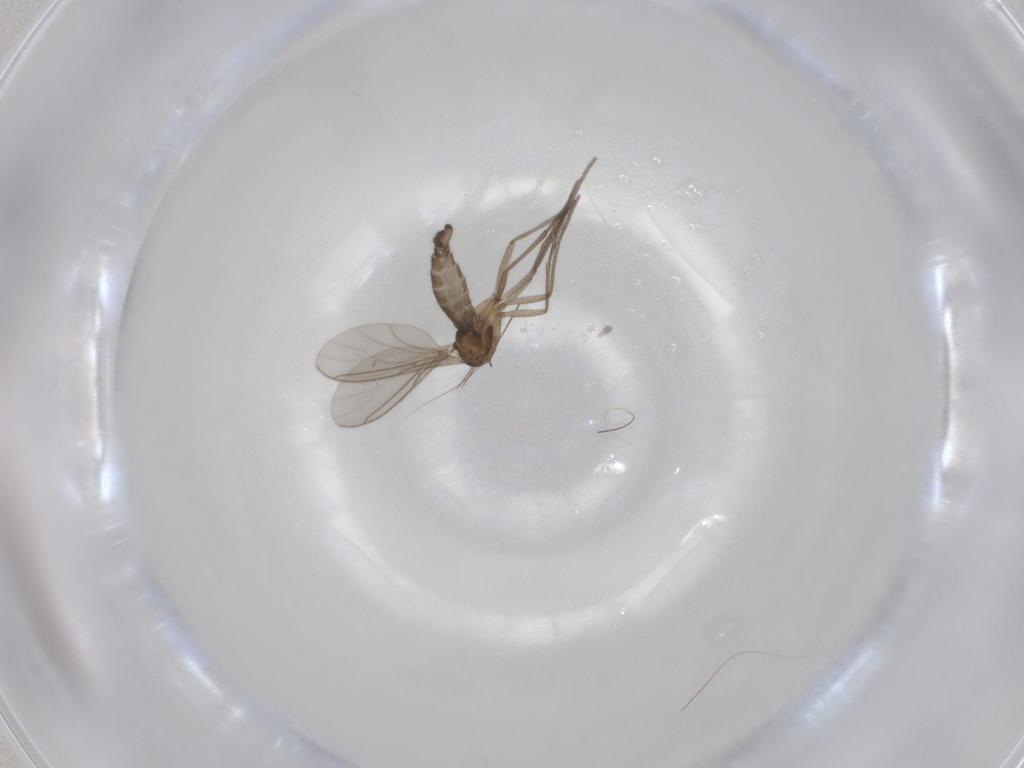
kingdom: Animalia
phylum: Arthropoda
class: Insecta
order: Diptera
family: Sciaridae
